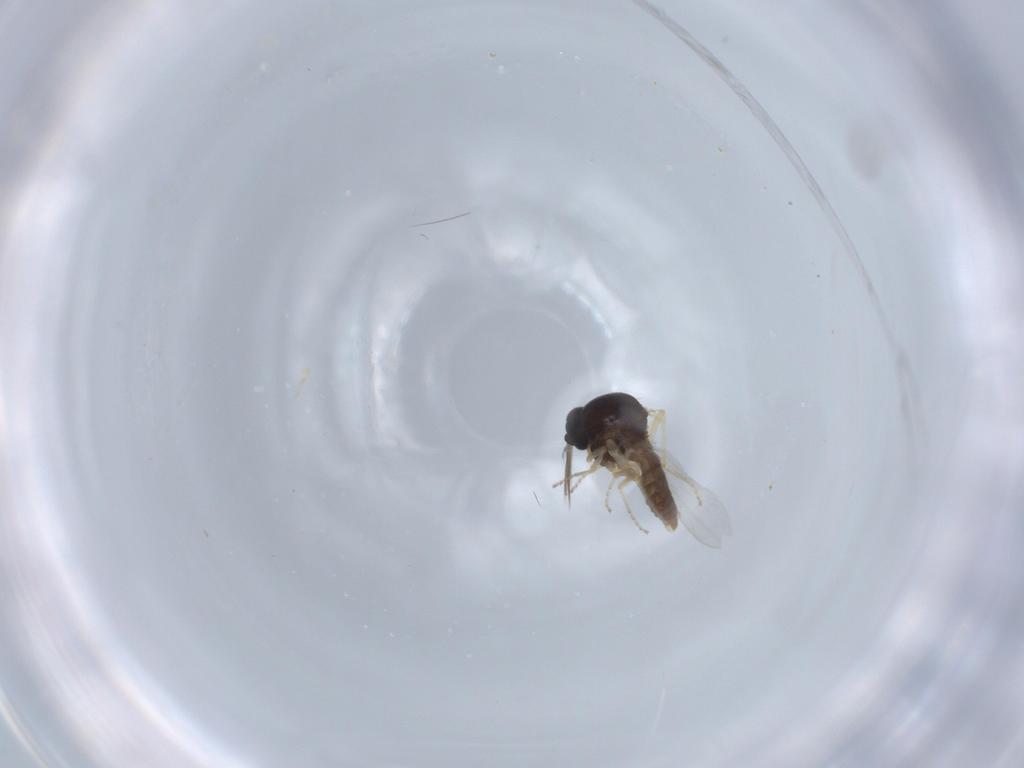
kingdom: Animalia
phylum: Arthropoda
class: Insecta
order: Diptera
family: Ceratopogonidae
